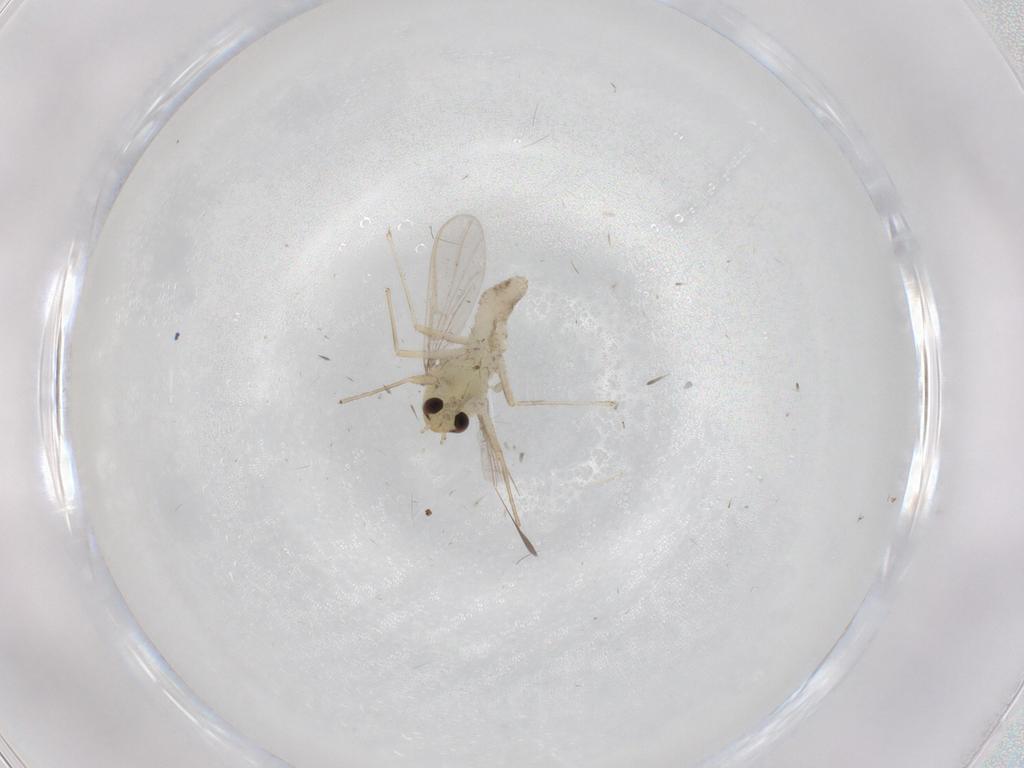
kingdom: Animalia
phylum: Arthropoda
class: Insecta
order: Diptera
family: Chironomidae
